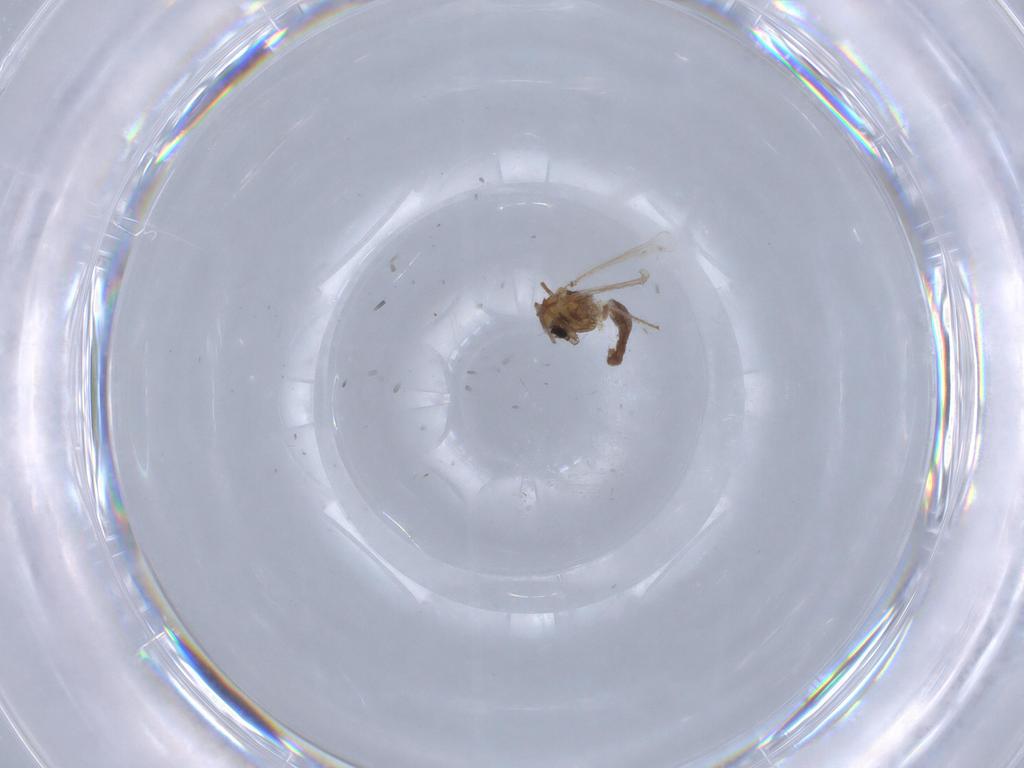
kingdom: Animalia
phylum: Arthropoda
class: Insecta
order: Diptera
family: Chironomidae
